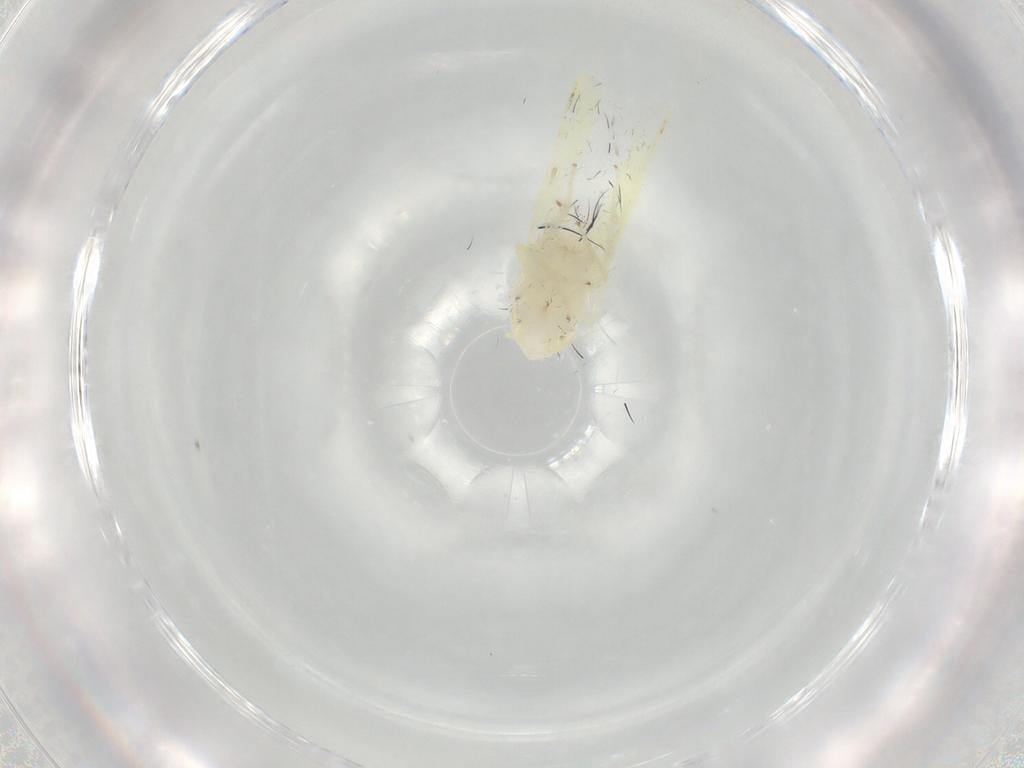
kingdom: Animalia
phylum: Arthropoda
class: Insecta
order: Hemiptera
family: Cicadellidae
